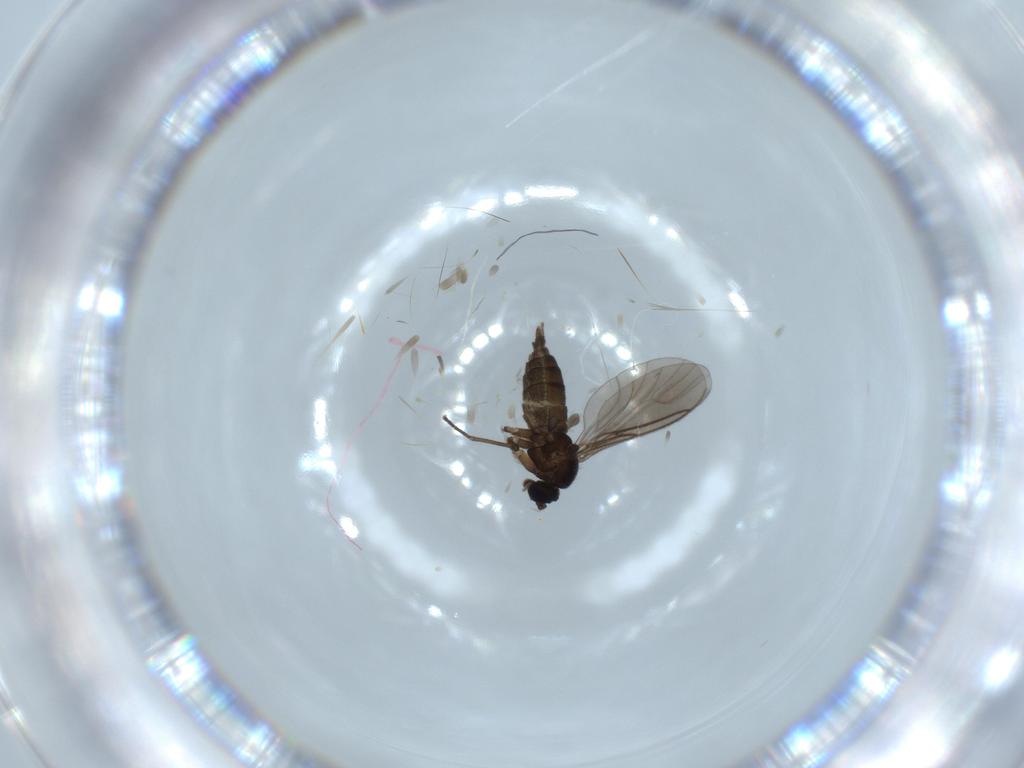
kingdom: Animalia
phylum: Arthropoda
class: Insecta
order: Diptera
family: Sciaridae
